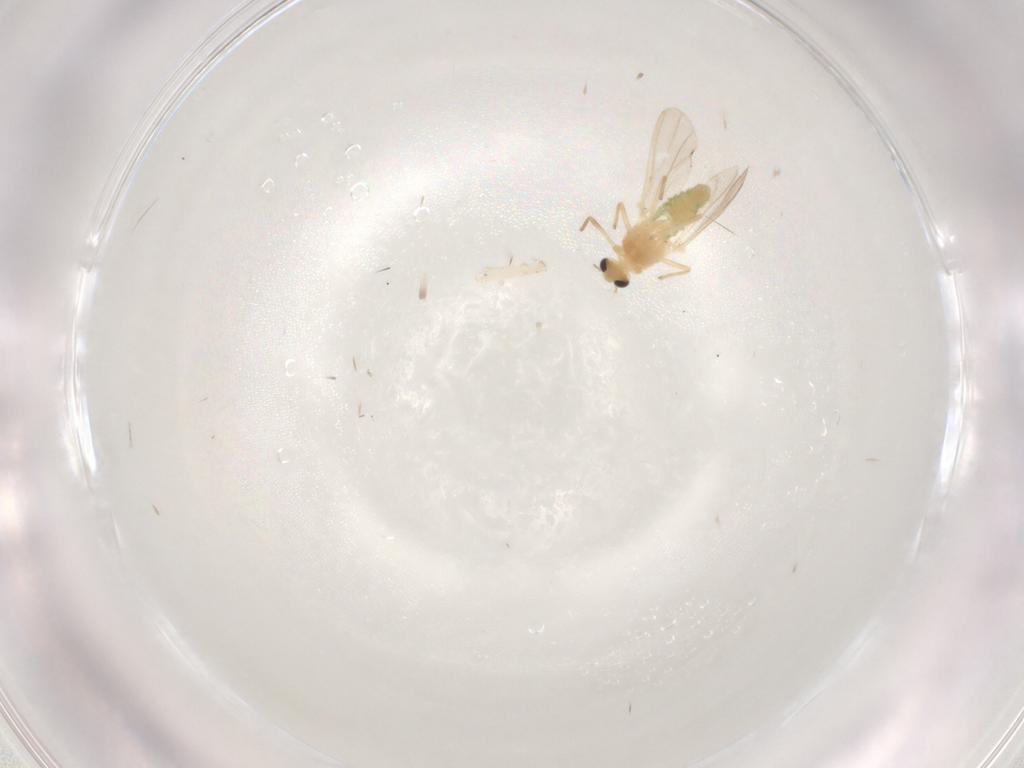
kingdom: Animalia
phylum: Arthropoda
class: Insecta
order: Diptera
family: Chironomidae
